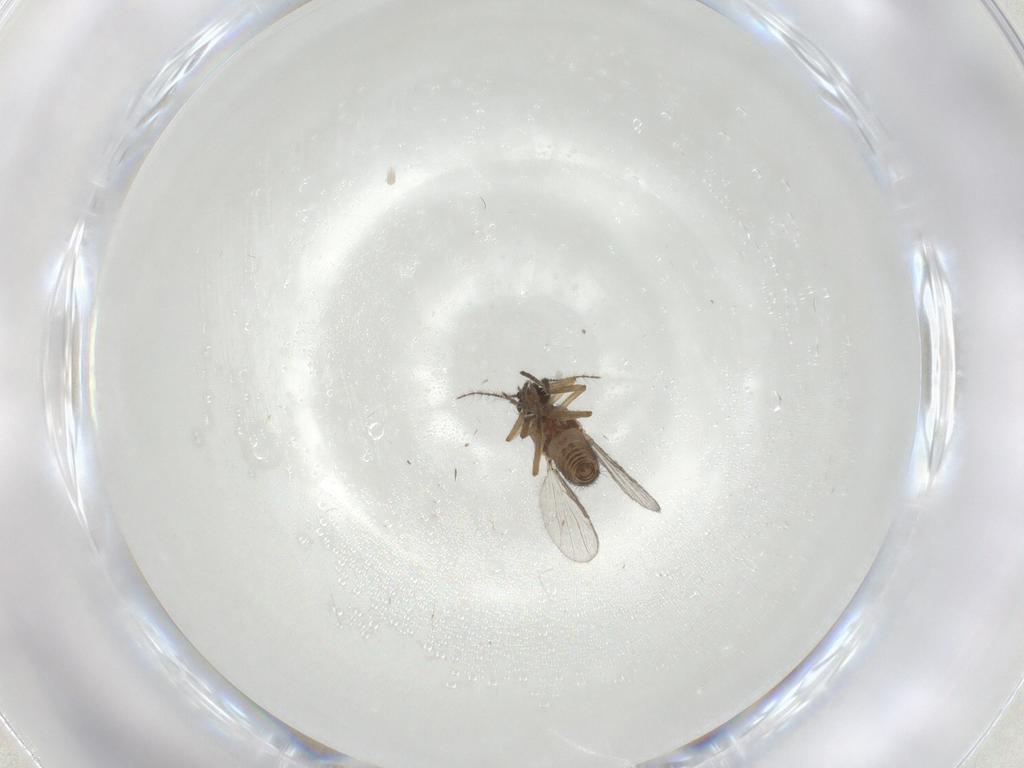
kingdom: Animalia
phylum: Arthropoda
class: Insecta
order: Diptera
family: Ceratopogonidae
